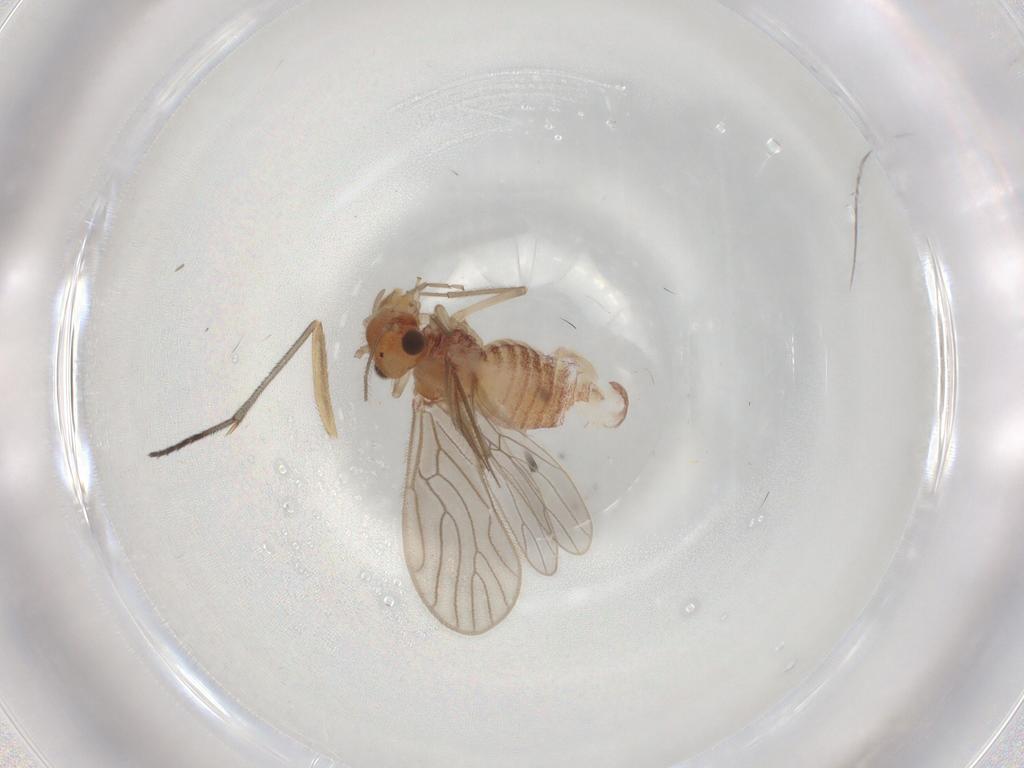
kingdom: Animalia
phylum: Arthropoda
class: Insecta
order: Psocodea
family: Epipsocidae
